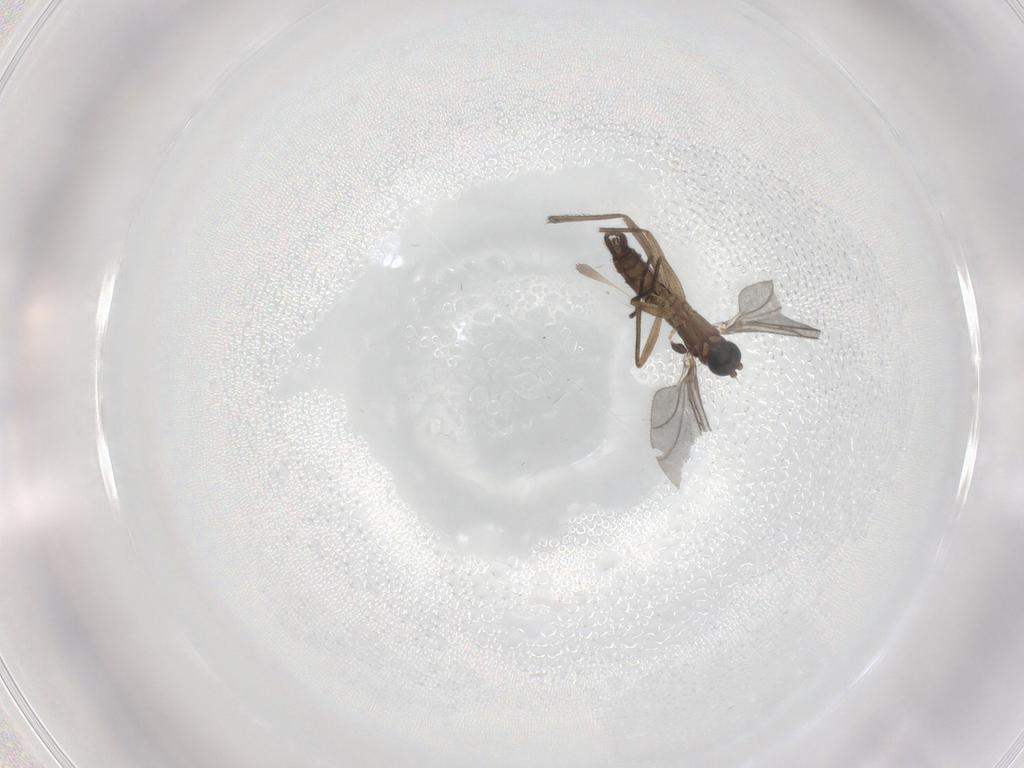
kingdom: Animalia
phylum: Arthropoda
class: Insecta
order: Diptera
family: Sciaridae
